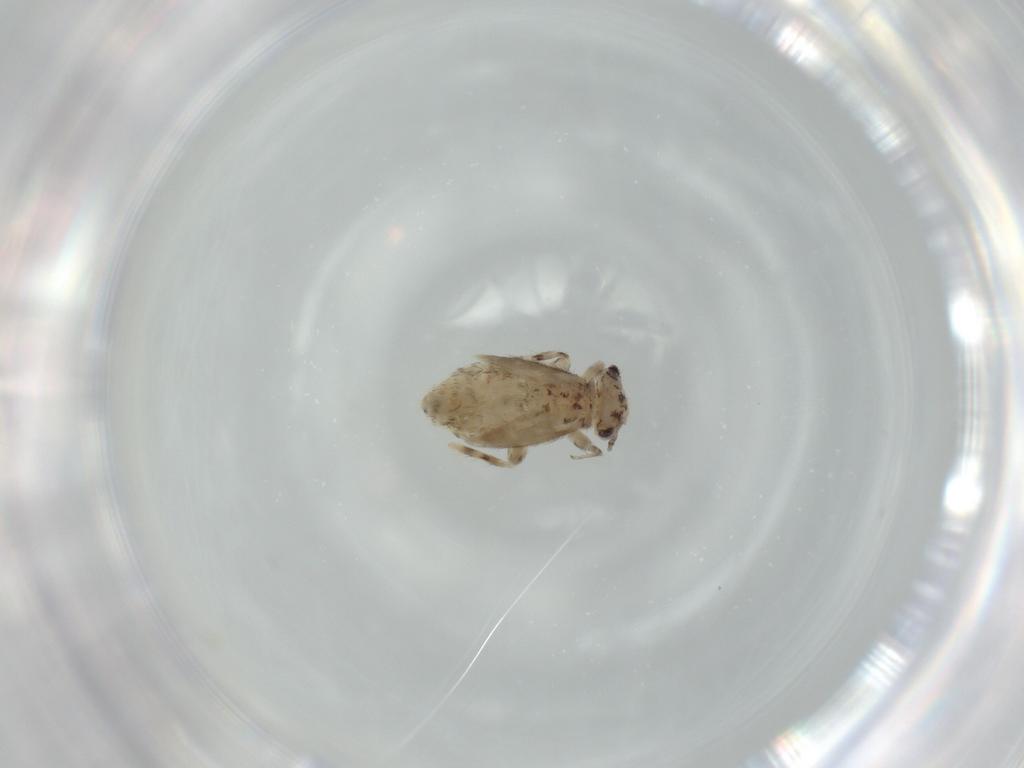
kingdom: Animalia
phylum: Arthropoda
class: Insecta
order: Psocodea
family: Lepidopsocidae
